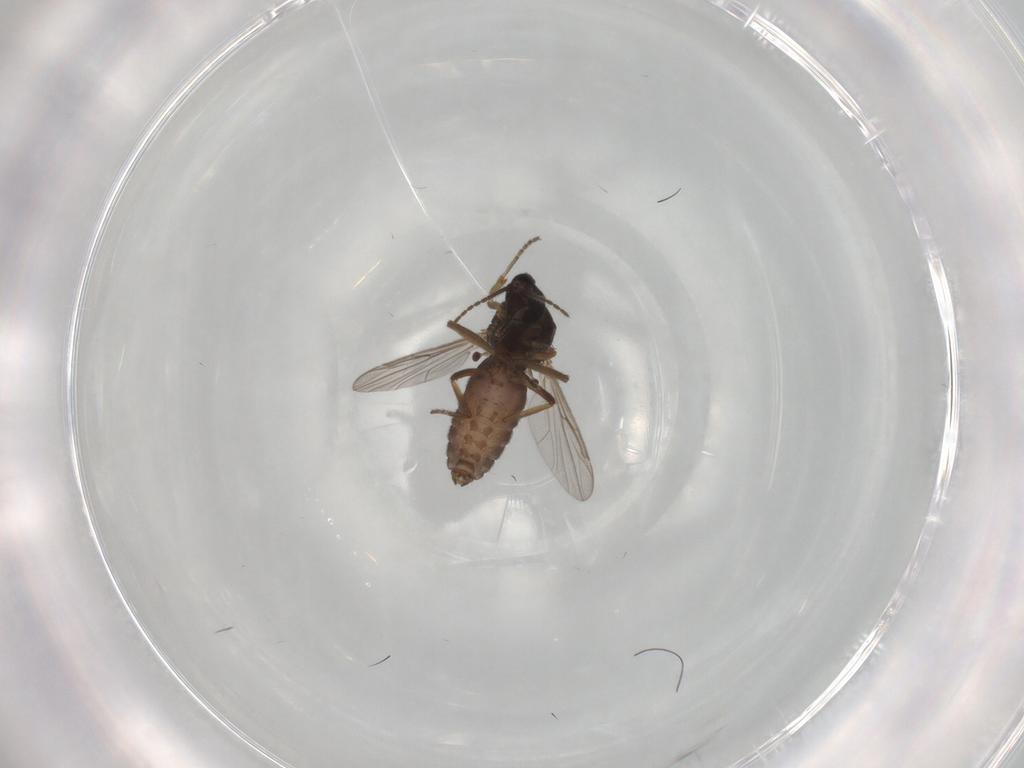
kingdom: Animalia
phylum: Arthropoda
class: Insecta
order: Diptera
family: Ceratopogonidae
